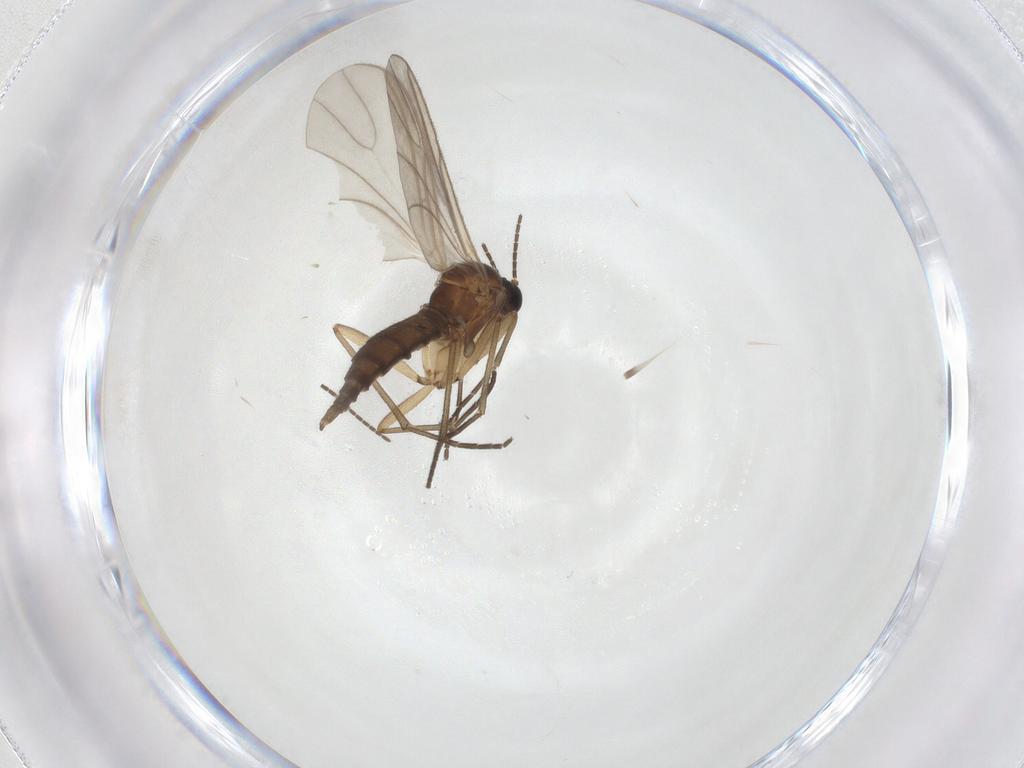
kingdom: Animalia
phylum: Arthropoda
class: Insecta
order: Diptera
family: Sciaridae
